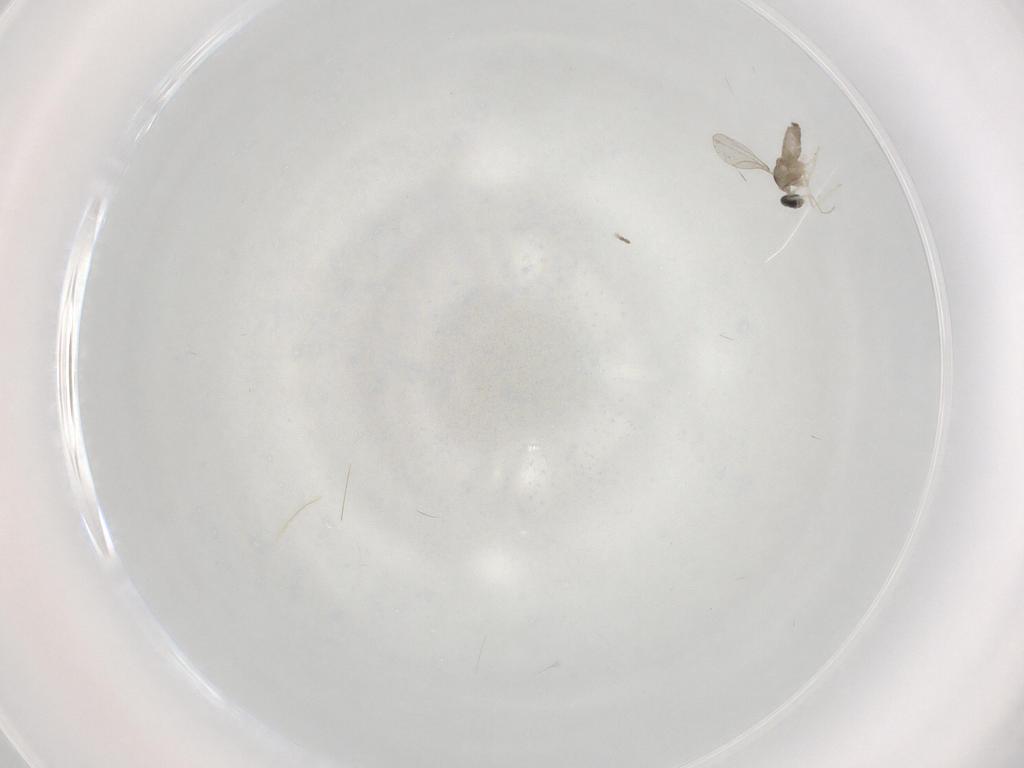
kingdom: Animalia
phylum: Arthropoda
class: Insecta
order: Diptera
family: Cecidomyiidae
